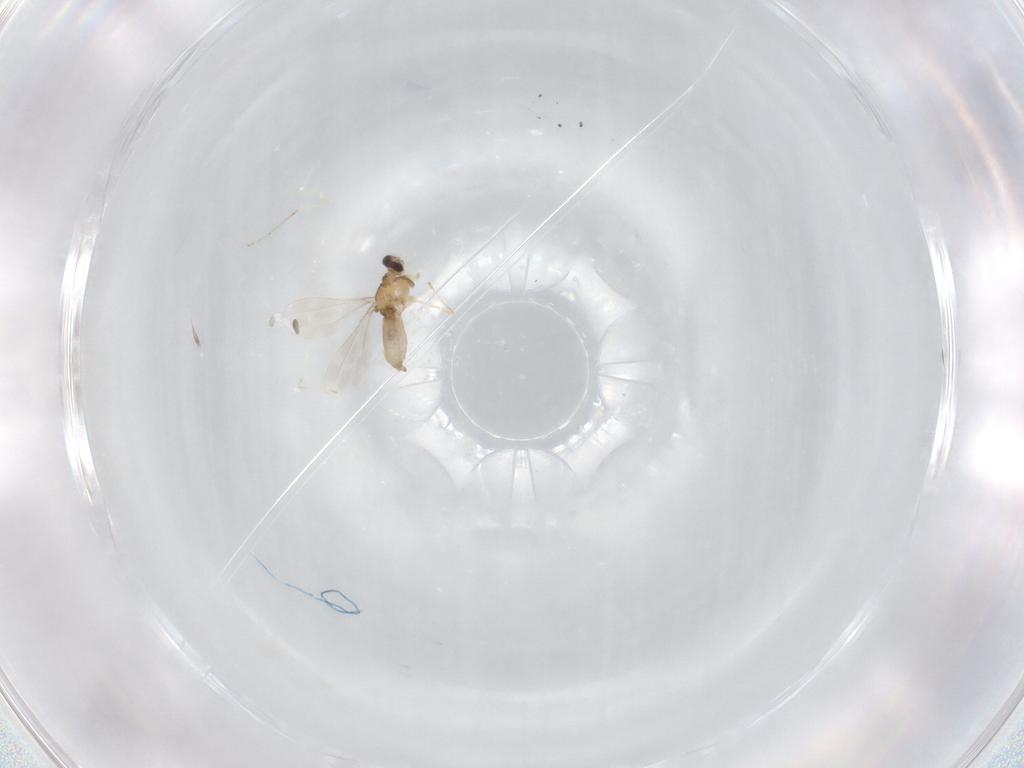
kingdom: Animalia
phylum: Arthropoda
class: Insecta
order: Diptera
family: Cecidomyiidae
